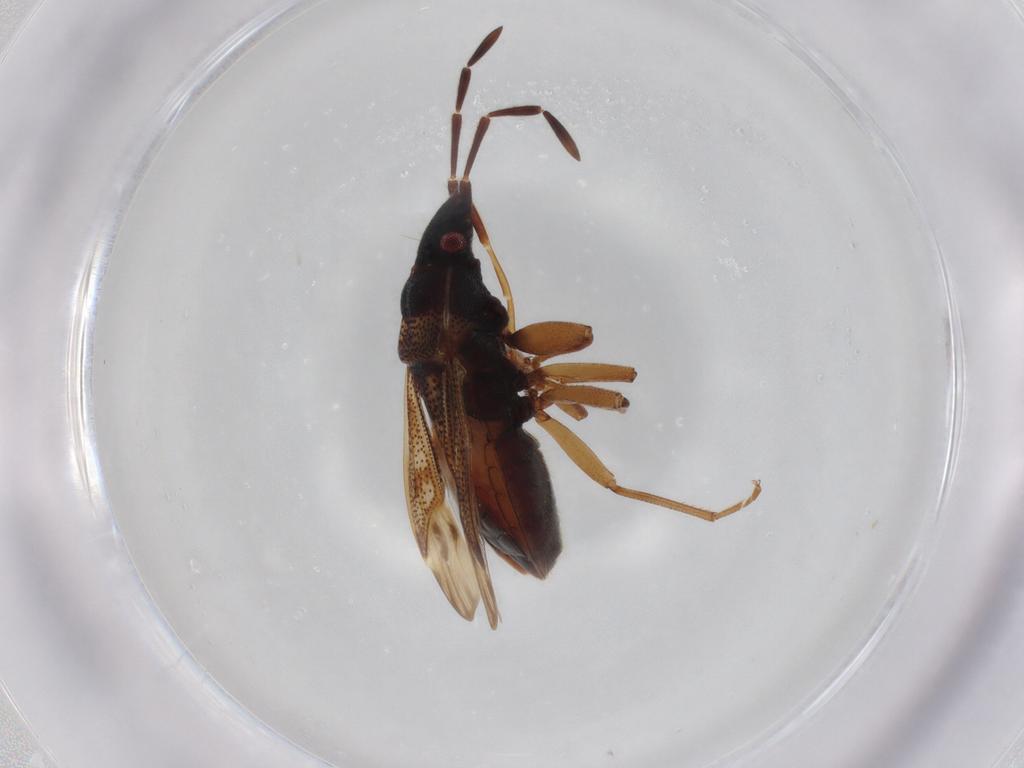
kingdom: Animalia
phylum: Arthropoda
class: Insecta
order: Hemiptera
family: Rhyparochromidae
